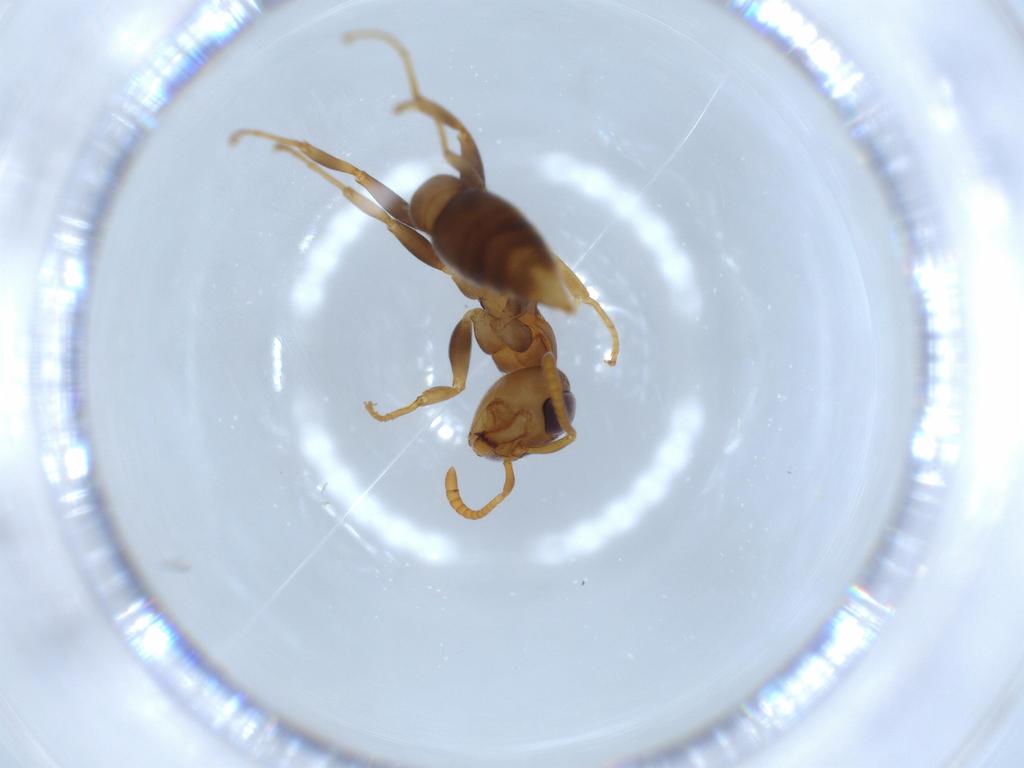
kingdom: Animalia
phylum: Arthropoda
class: Insecta
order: Hymenoptera
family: Formicidae
